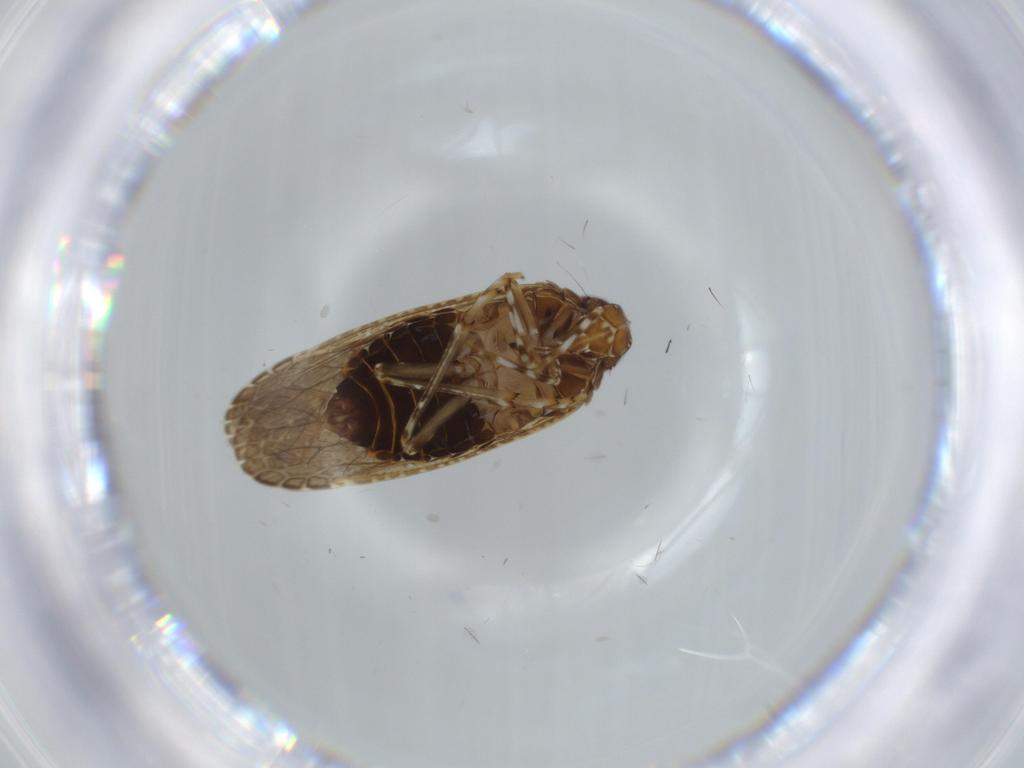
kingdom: Animalia
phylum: Arthropoda
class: Insecta
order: Hemiptera
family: Achilidae
